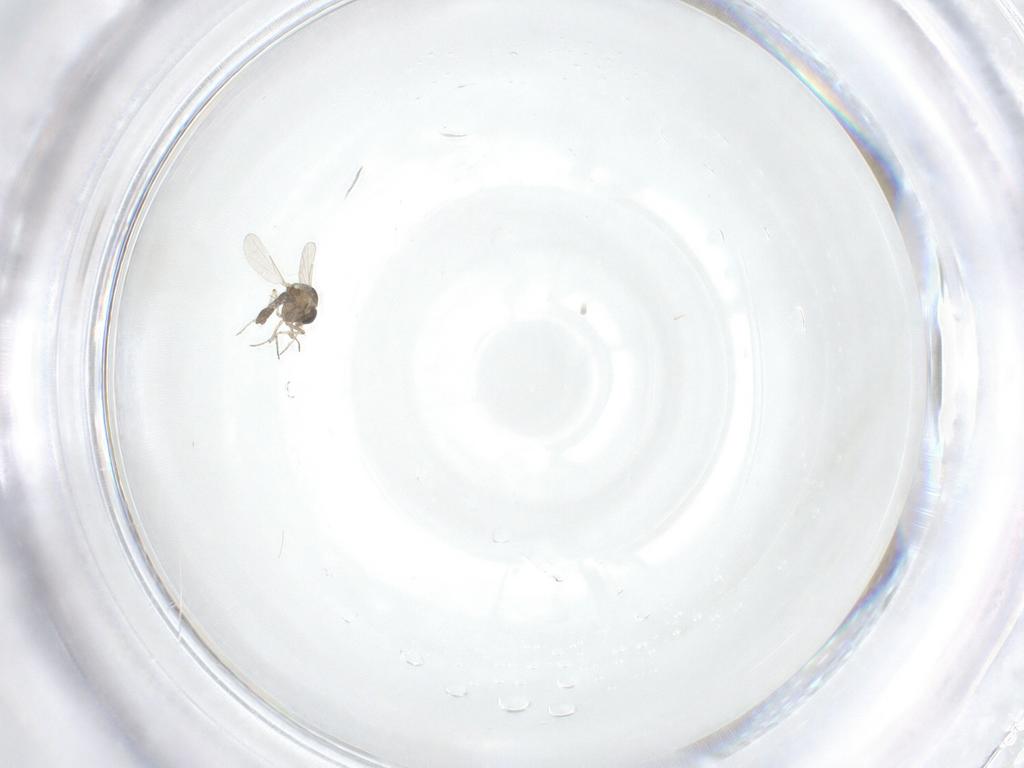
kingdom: Animalia
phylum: Arthropoda
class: Insecta
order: Diptera
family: Ceratopogonidae
